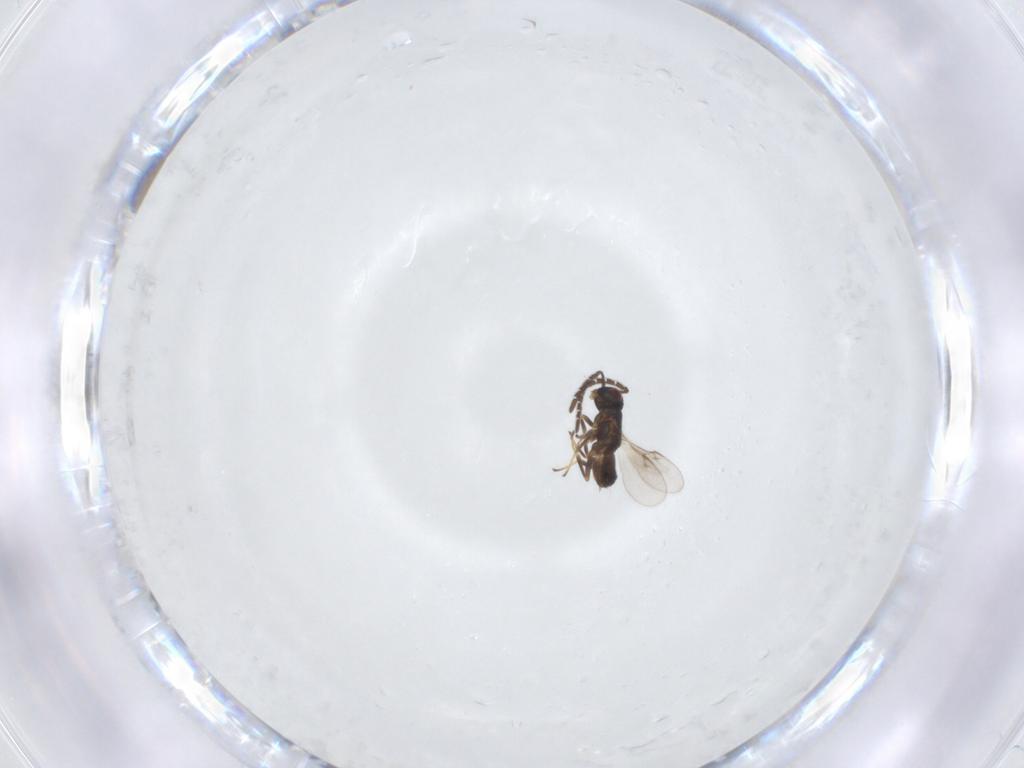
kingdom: Animalia
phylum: Arthropoda
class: Insecta
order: Hymenoptera
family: Encyrtidae
